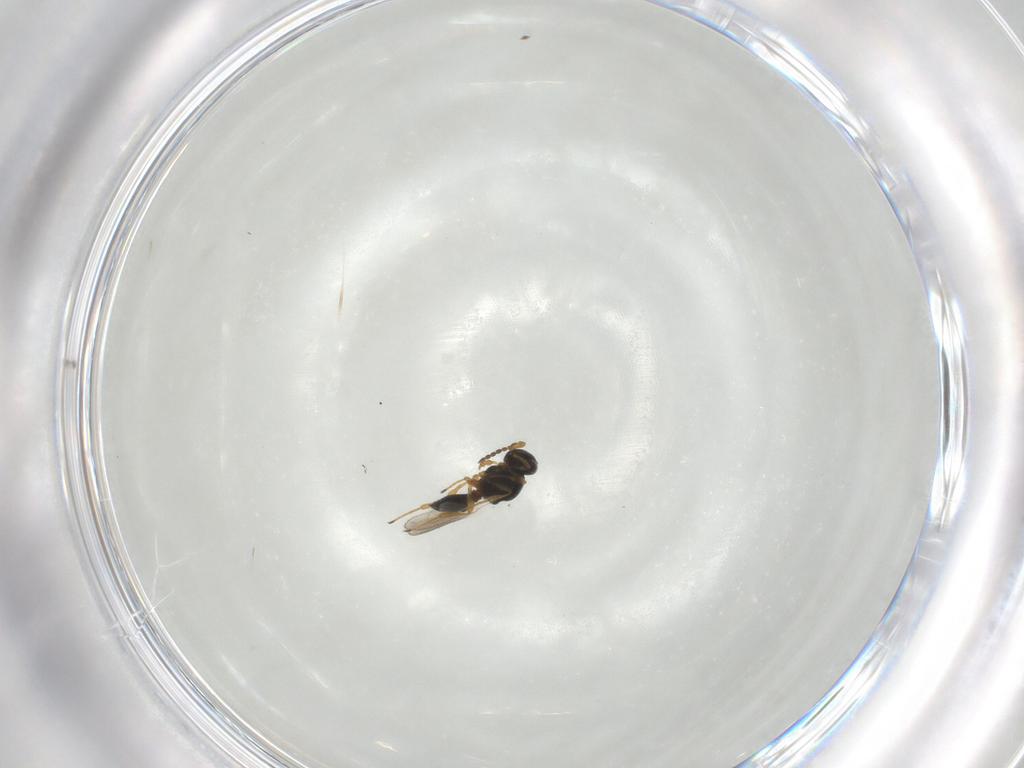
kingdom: Animalia
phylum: Arthropoda
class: Insecta
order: Hymenoptera
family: Platygastridae
